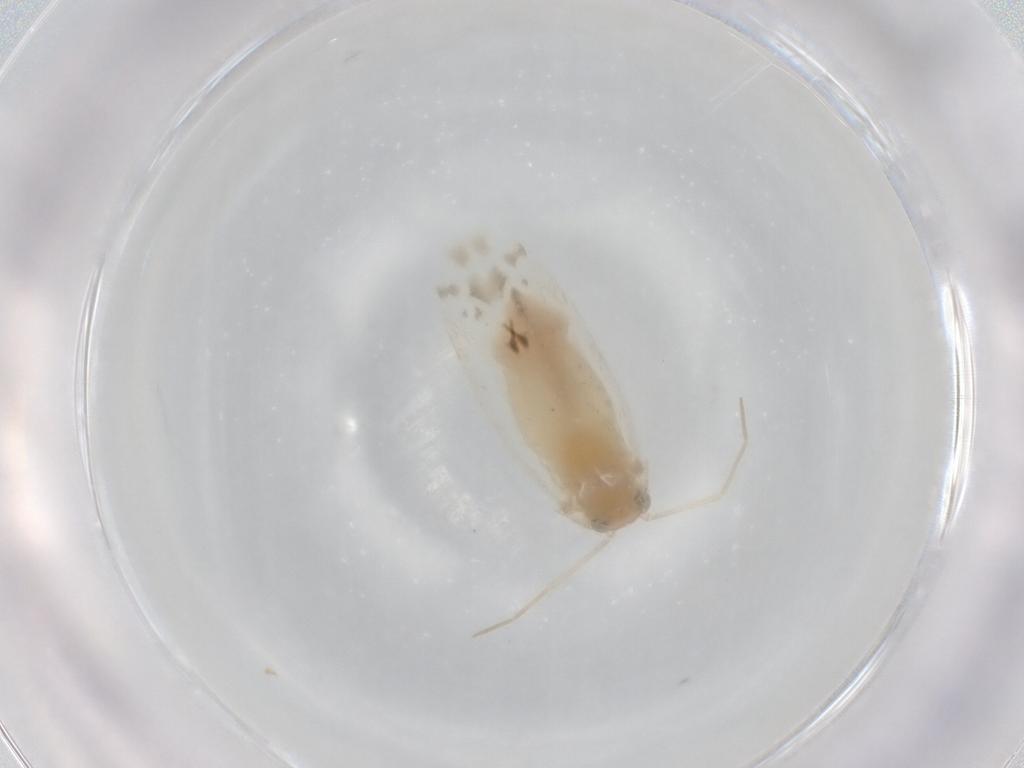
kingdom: Animalia
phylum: Arthropoda
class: Insecta
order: Hemiptera
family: Miridae
